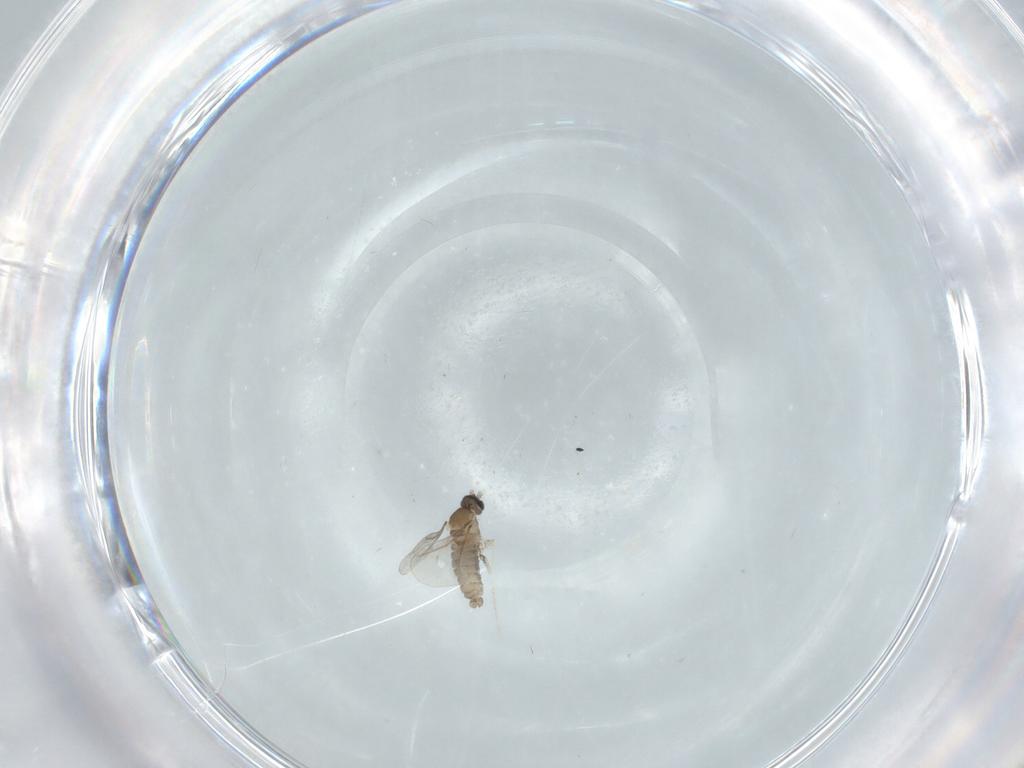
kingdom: Animalia
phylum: Arthropoda
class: Insecta
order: Diptera
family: Cecidomyiidae
